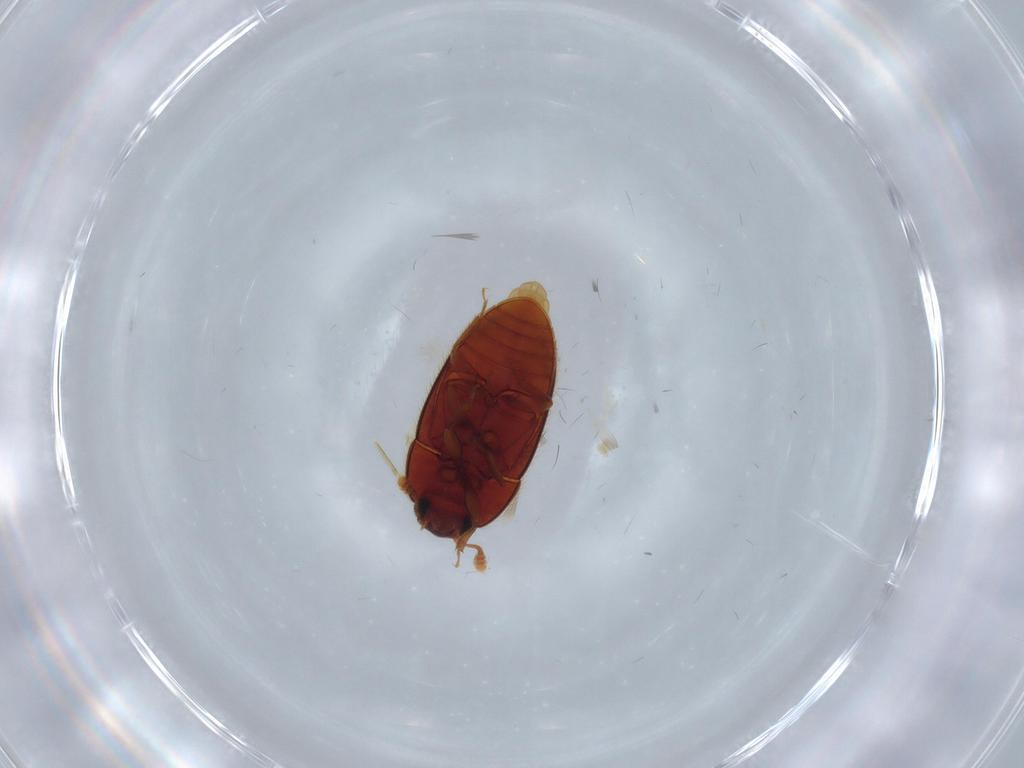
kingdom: Animalia
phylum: Arthropoda
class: Insecta
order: Coleoptera
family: Biphyllidae
